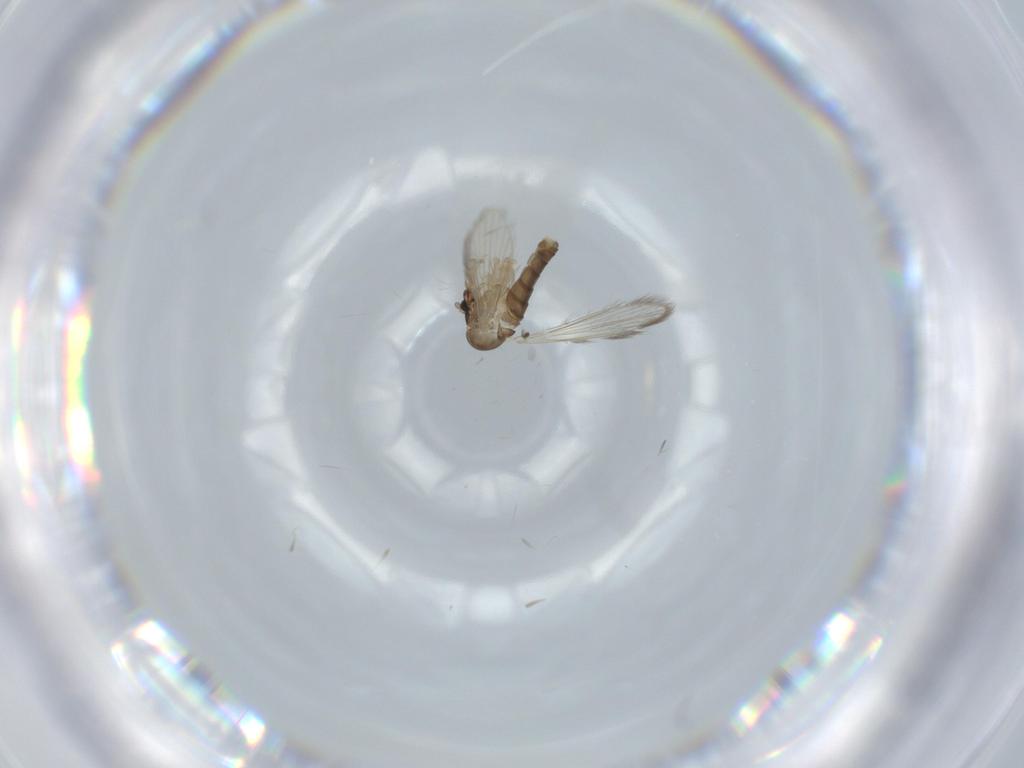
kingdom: Animalia
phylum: Arthropoda
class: Insecta
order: Diptera
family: Psychodidae
